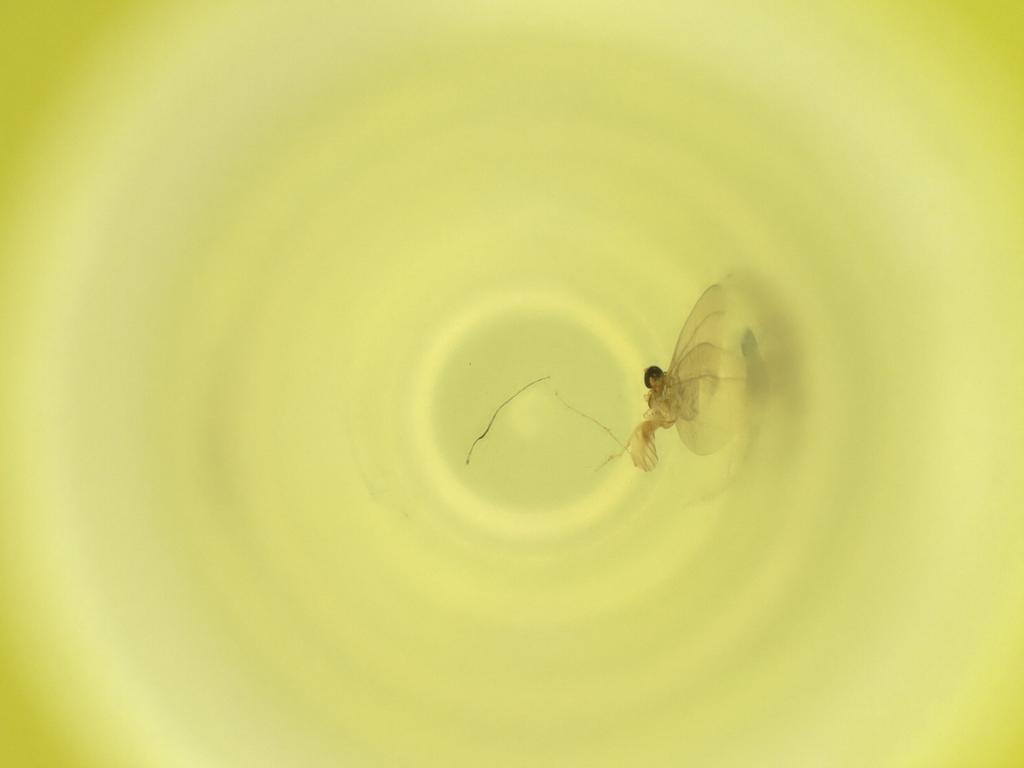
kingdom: Animalia
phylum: Arthropoda
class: Insecta
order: Diptera
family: Cecidomyiidae
